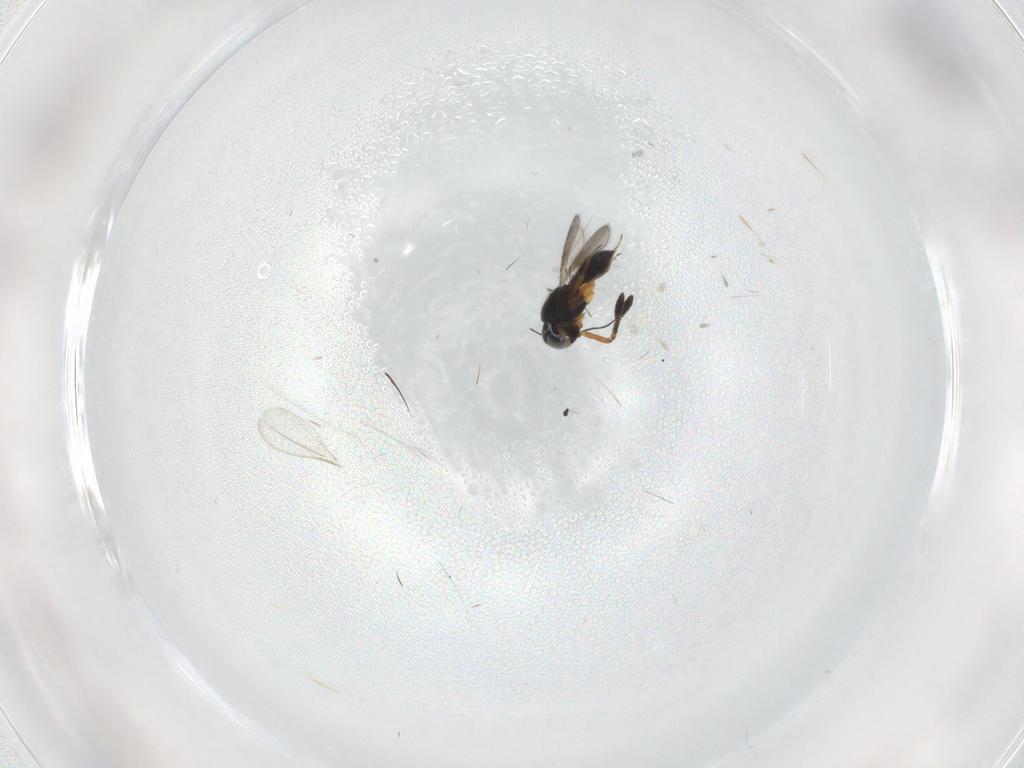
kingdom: Animalia
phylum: Arthropoda
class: Insecta
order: Hymenoptera
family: Scelionidae
